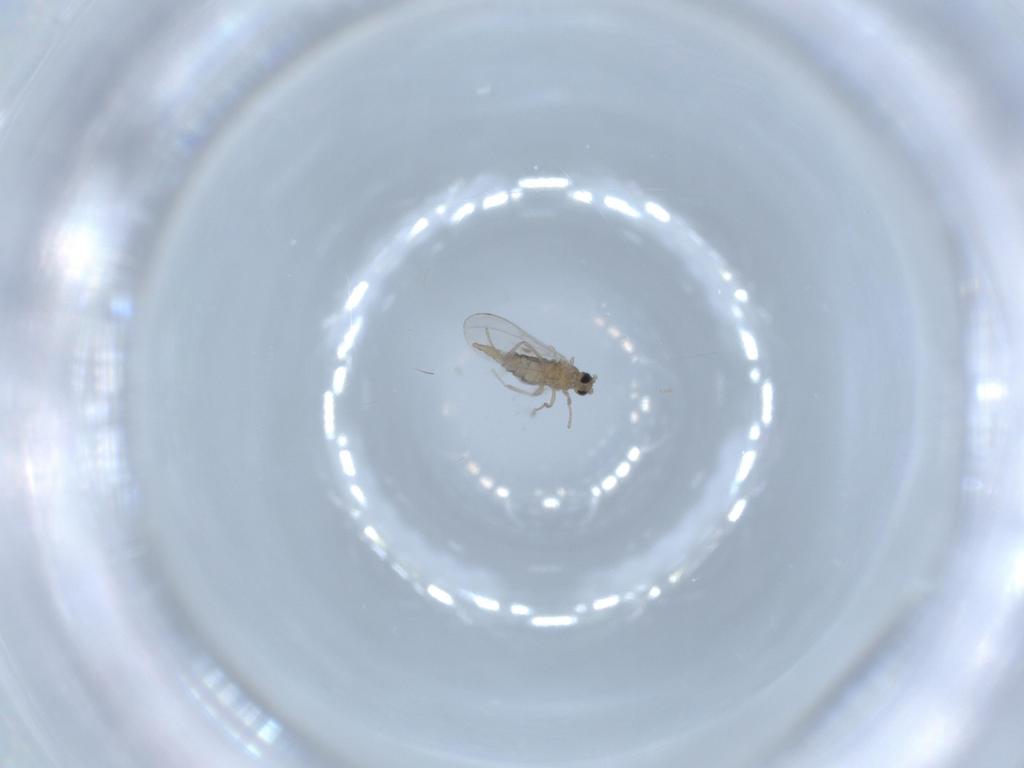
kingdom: Animalia
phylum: Arthropoda
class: Insecta
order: Diptera
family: Cecidomyiidae
